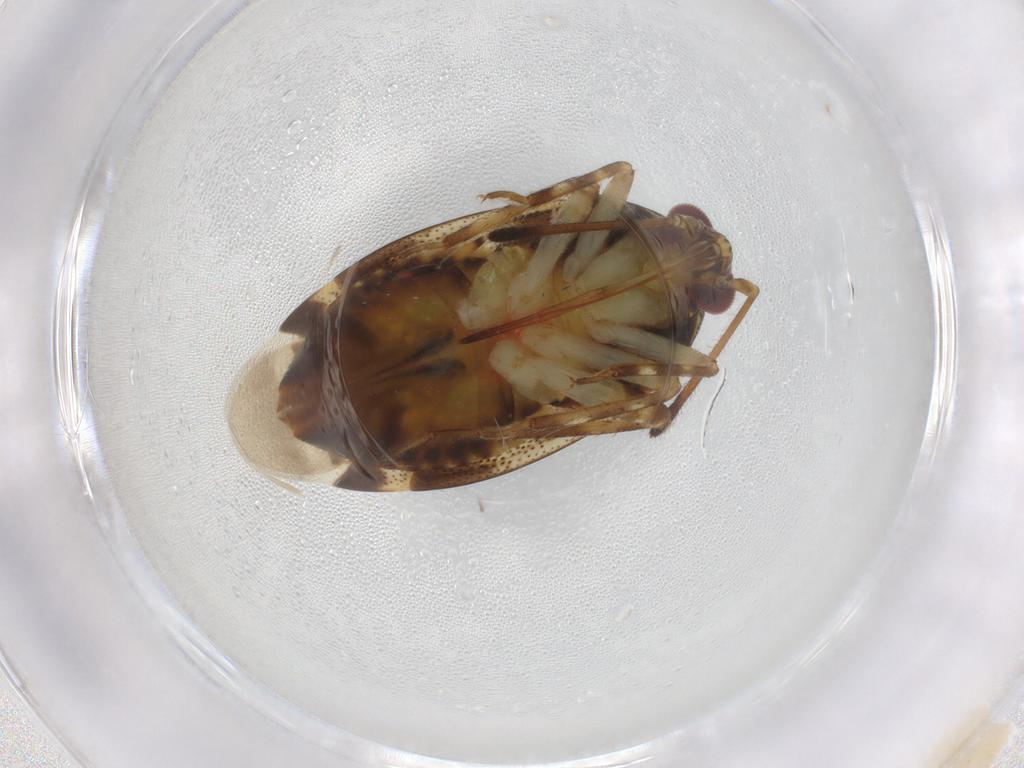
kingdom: Animalia
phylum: Arthropoda
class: Insecta
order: Hemiptera
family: Miridae
